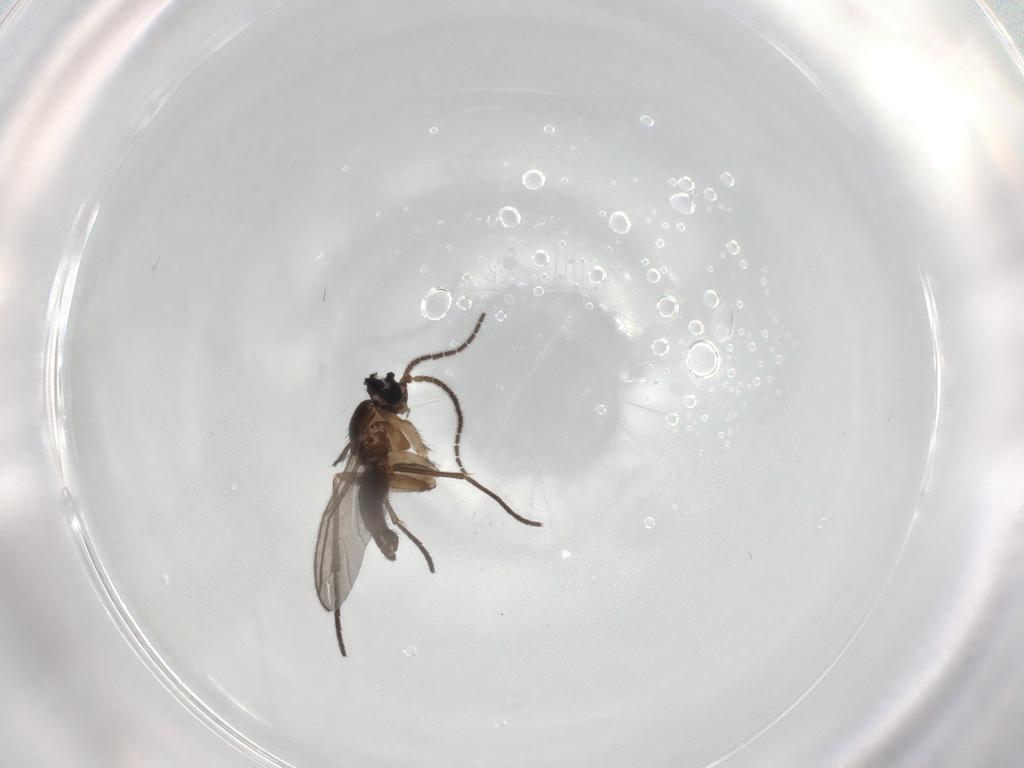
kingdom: Animalia
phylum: Arthropoda
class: Insecta
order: Diptera
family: Sciaridae
